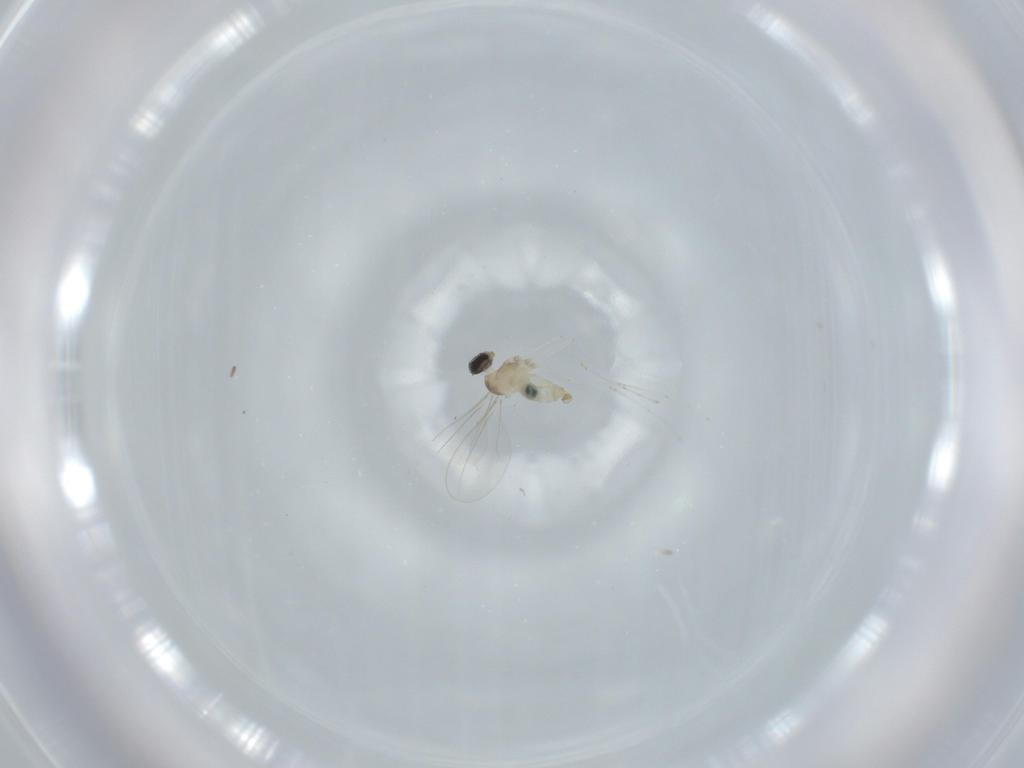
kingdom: Animalia
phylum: Arthropoda
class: Insecta
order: Diptera
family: Cecidomyiidae
